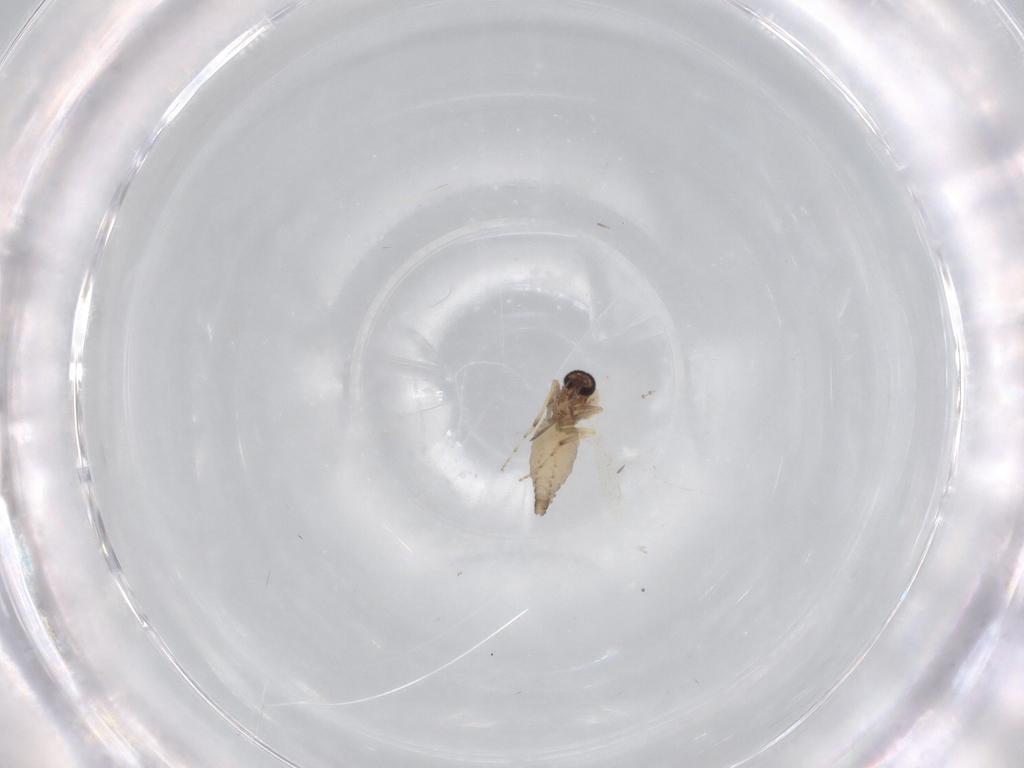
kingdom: Animalia
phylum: Arthropoda
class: Insecta
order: Diptera
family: Ceratopogonidae
